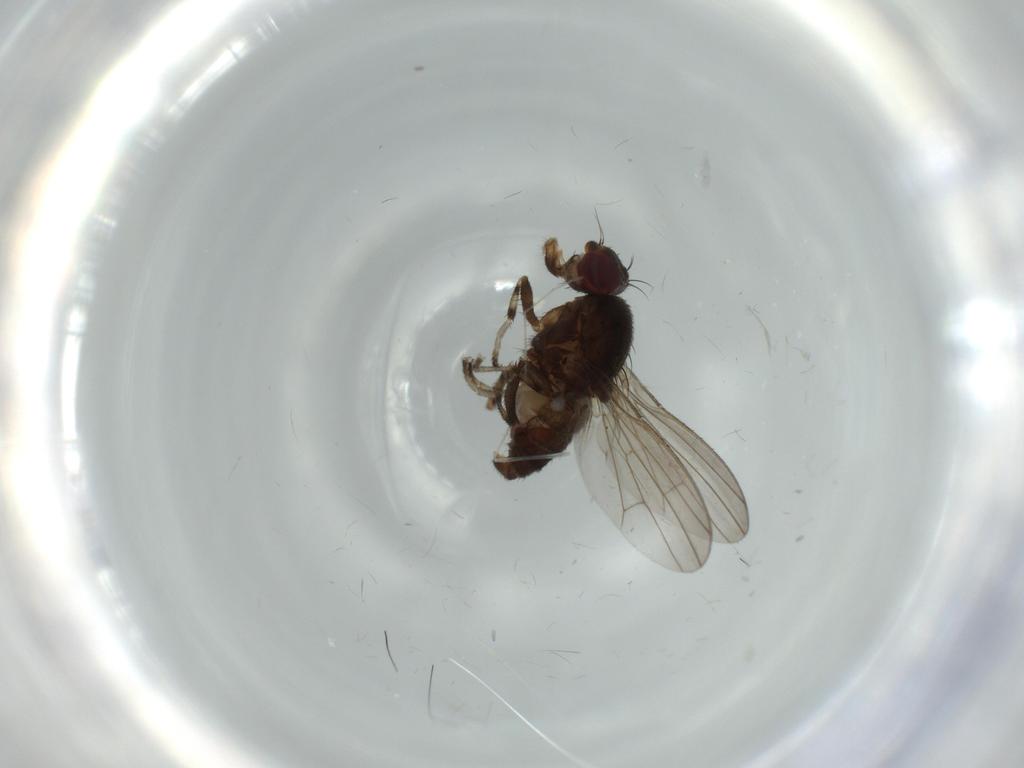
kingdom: Animalia
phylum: Arthropoda
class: Insecta
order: Diptera
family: Heleomyzidae
